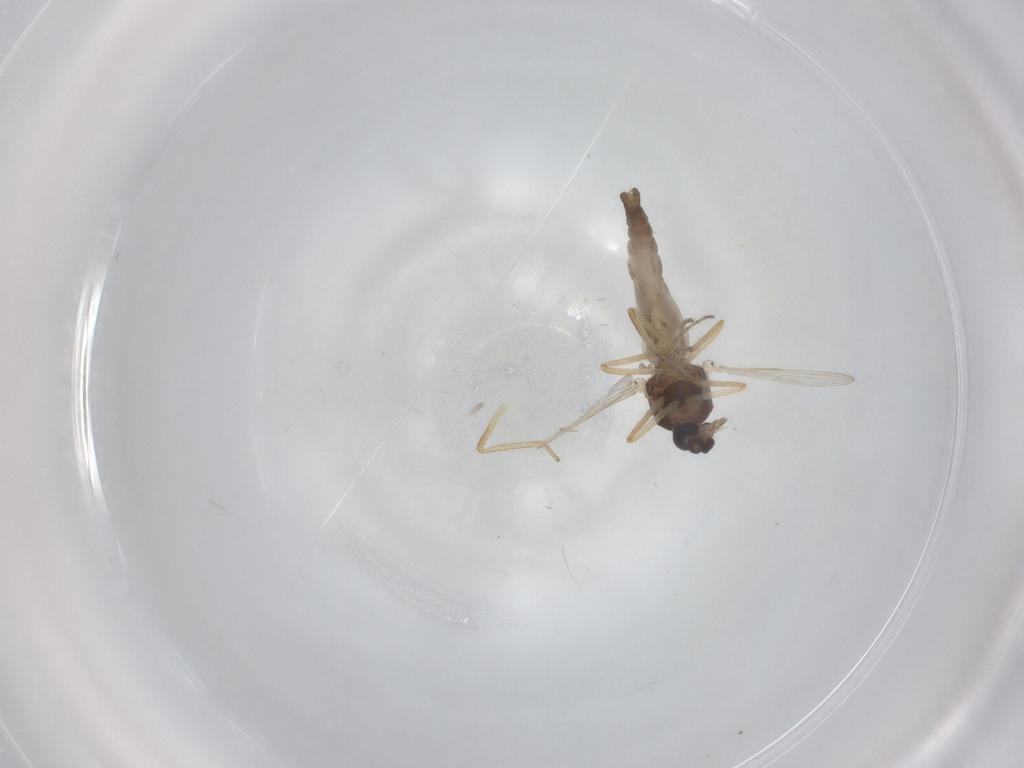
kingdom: Animalia
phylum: Arthropoda
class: Insecta
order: Diptera
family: Ceratopogonidae
